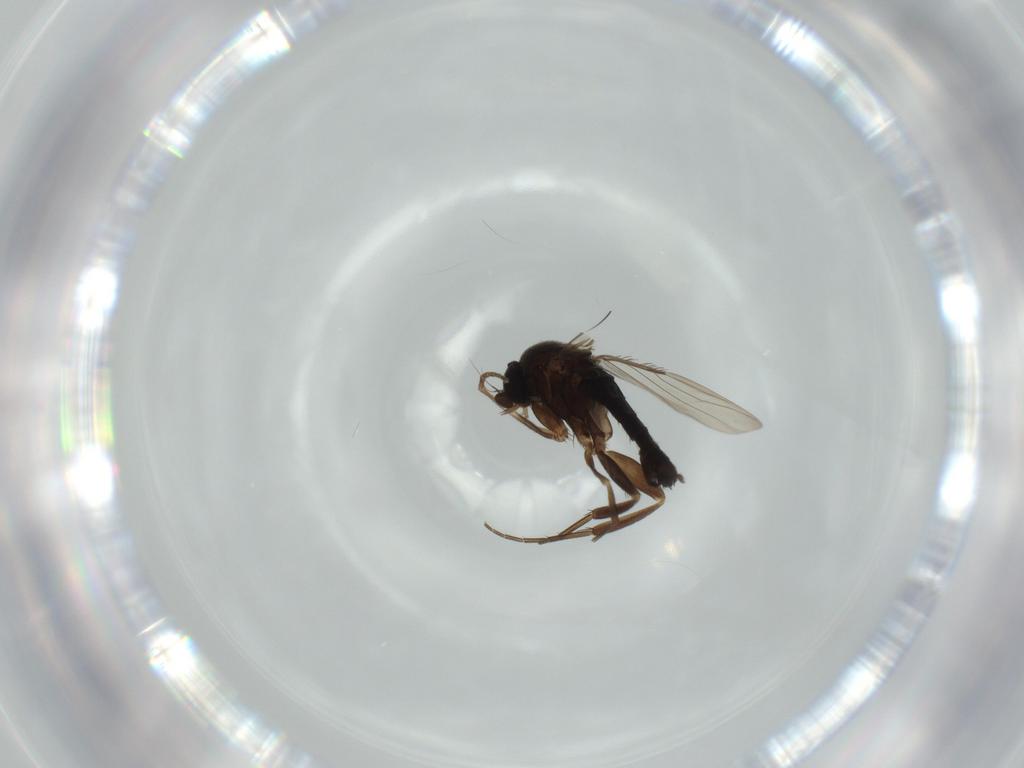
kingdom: Animalia
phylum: Arthropoda
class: Insecta
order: Diptera
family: Phoridae
